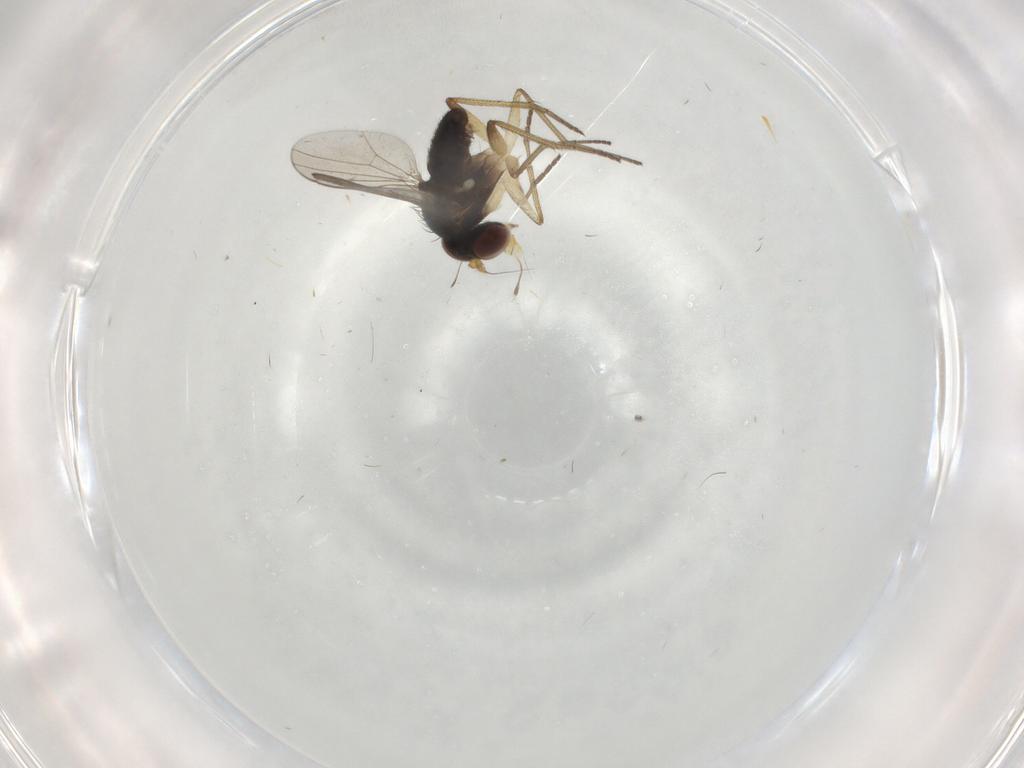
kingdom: Animalia
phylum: Arthropoda
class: Insecta
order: Diptera
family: Dolichopodidae
